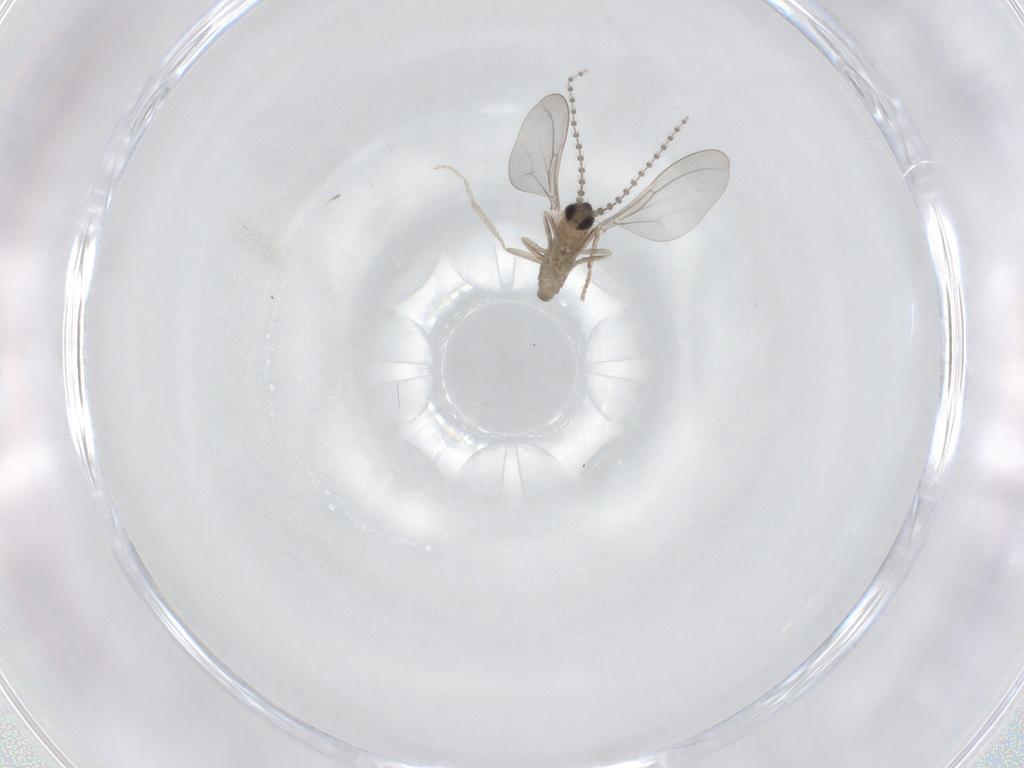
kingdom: Animalia
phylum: Arthropoda
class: Insecta
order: Diptera
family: Cecidomyiidae
